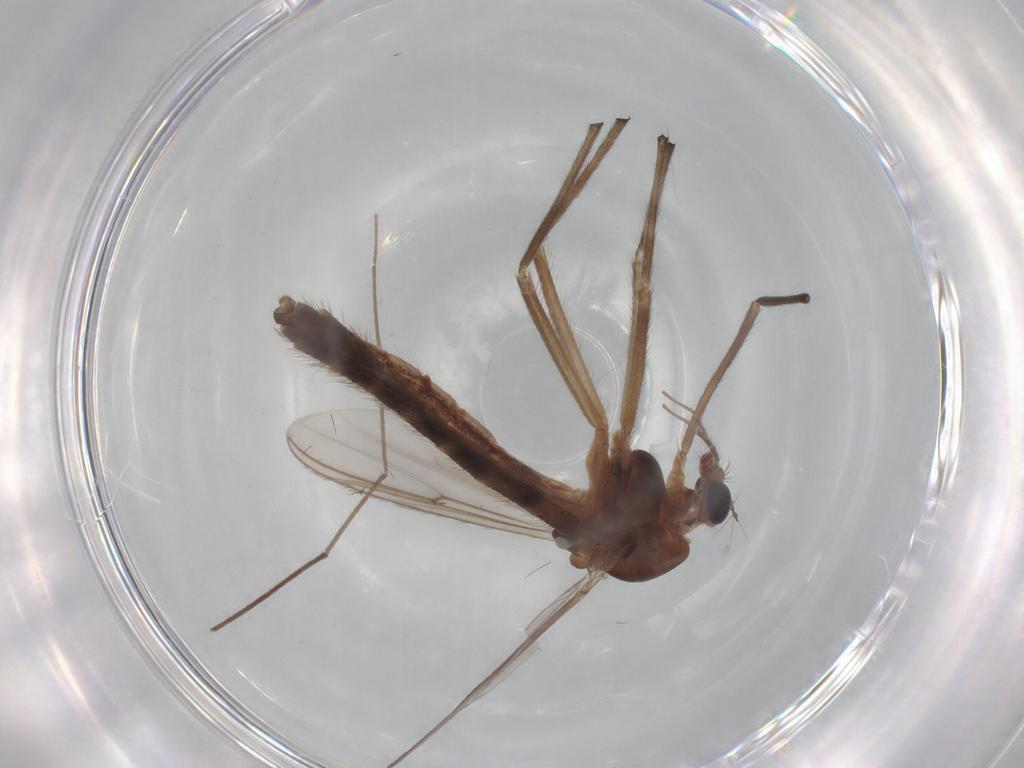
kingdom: Animalia
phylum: Arthropoda
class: Insecta
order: Diptera
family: Chironomidae
